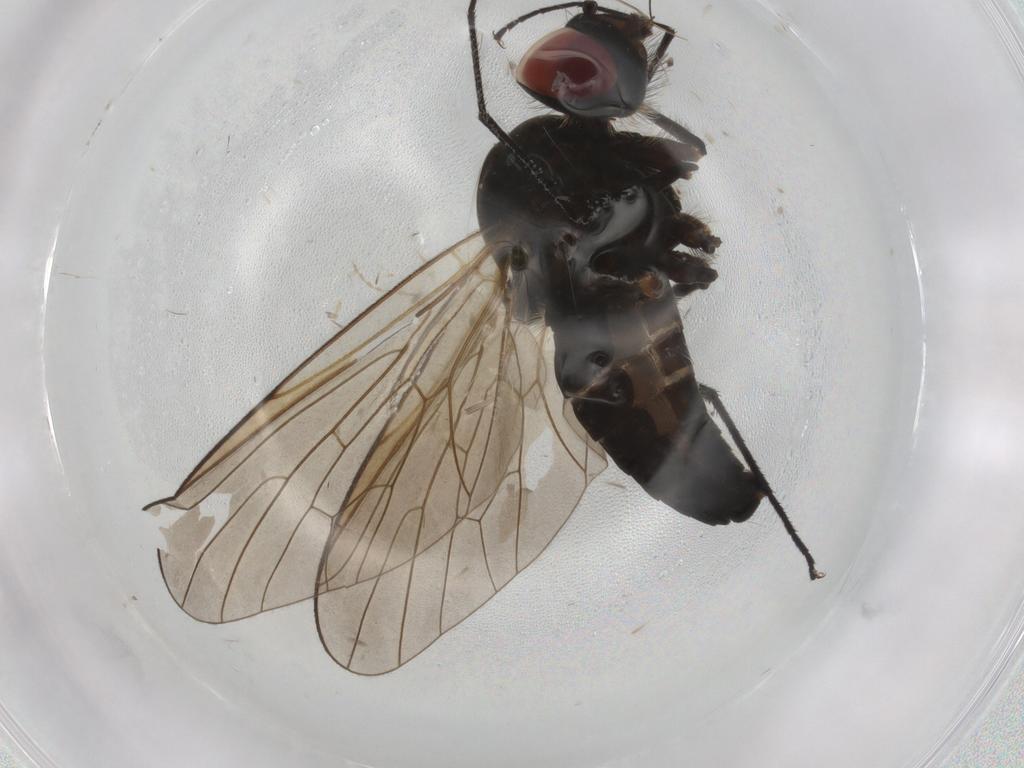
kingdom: Animalia
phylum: Arthropoda
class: Insecta
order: Diptera
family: Bombyliidae
